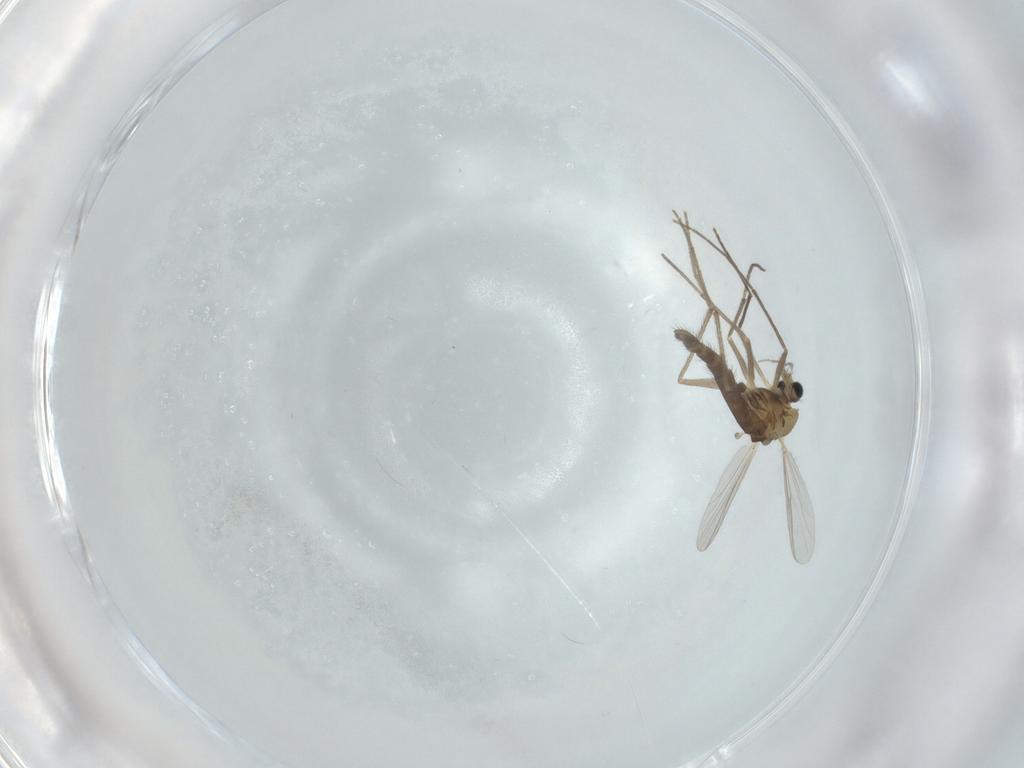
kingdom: Animalia
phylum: Arthropoda
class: Insecta
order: Diptera
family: Chironomidae
